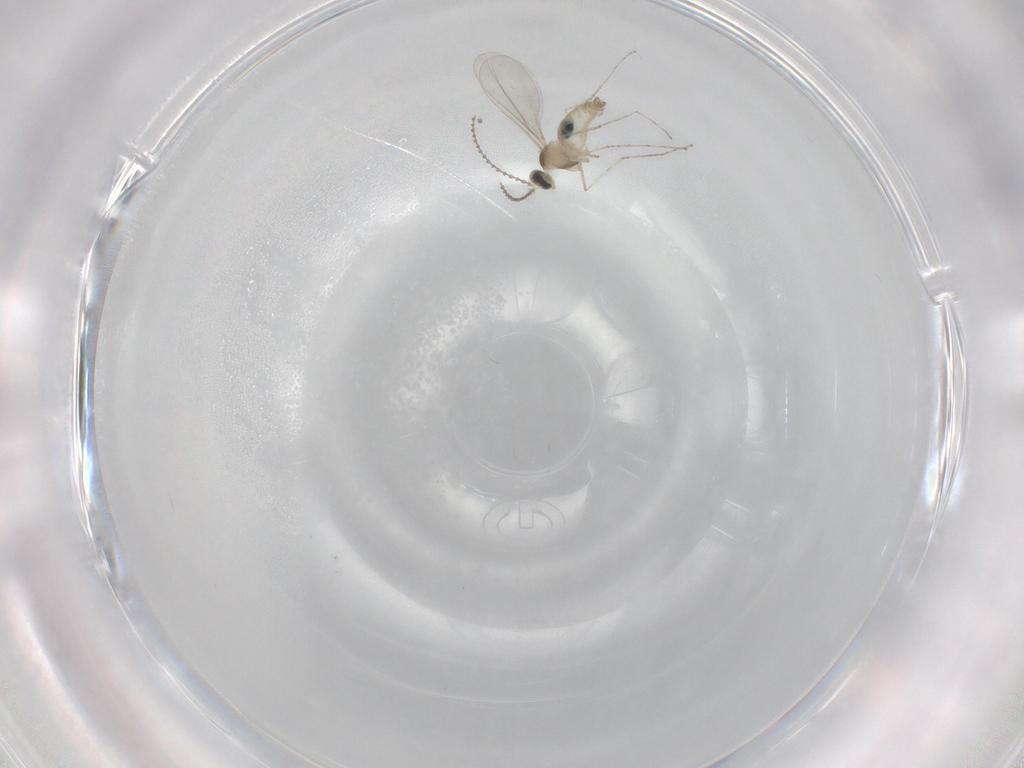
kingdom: Animalia
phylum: Arthropoda
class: Insecta
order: Diptera
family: Cecidomyiidae
